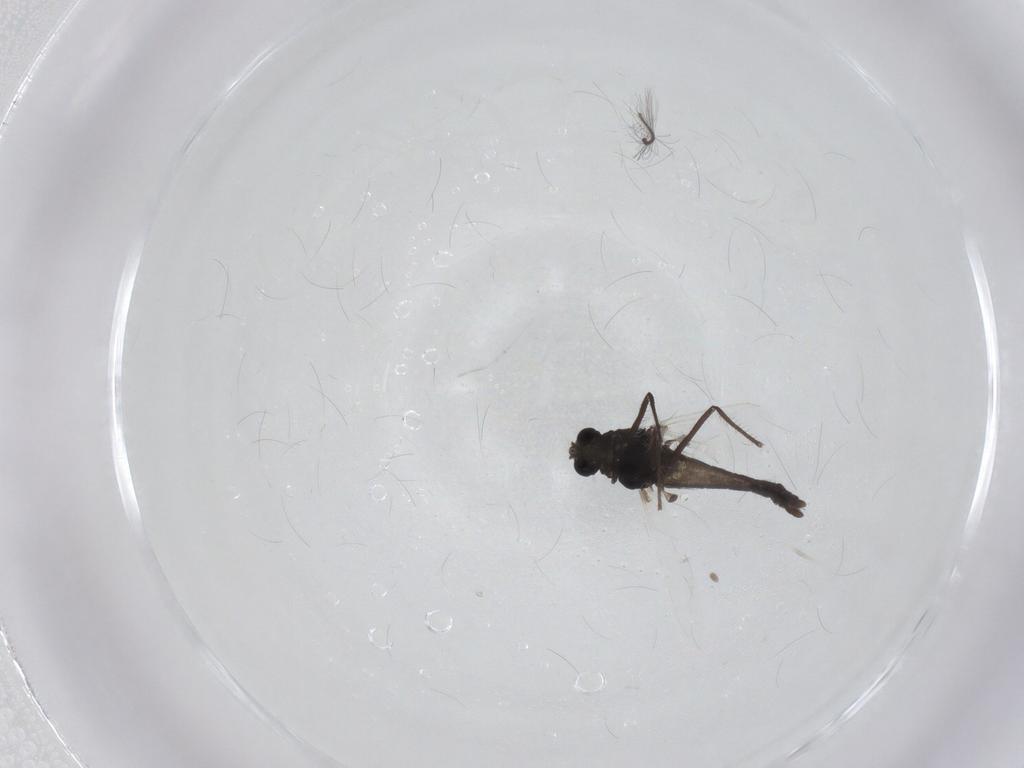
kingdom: Animalia
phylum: Arthropoda
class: Insecta
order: Diptera
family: Chironomidae
